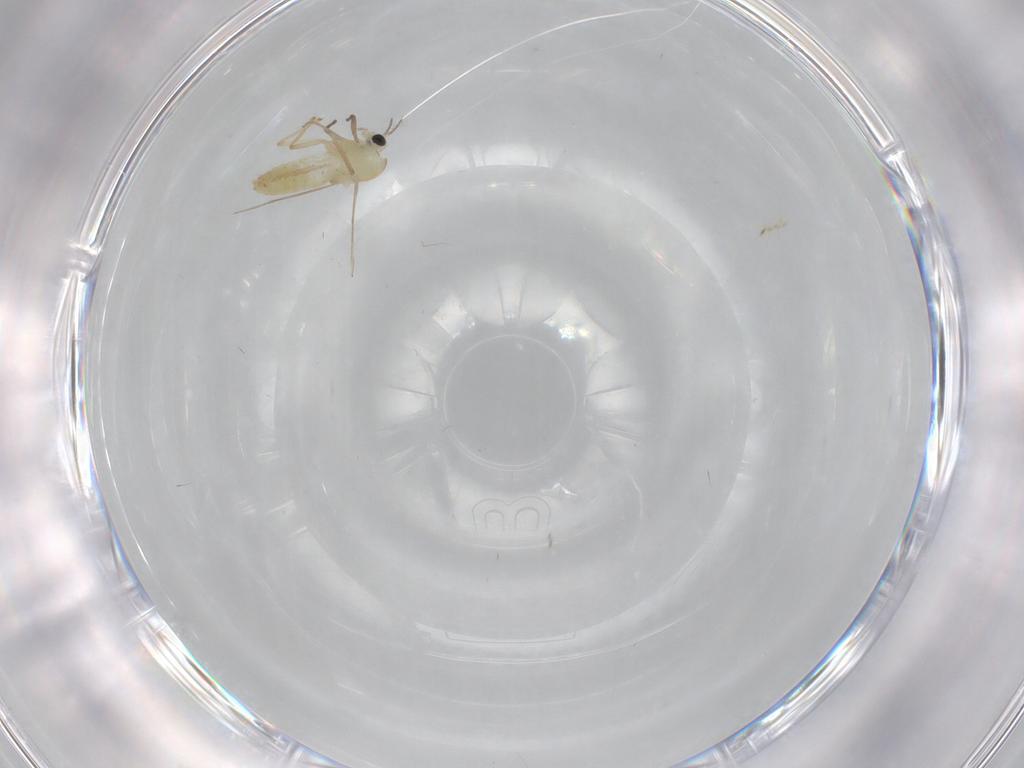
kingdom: Animalia
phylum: Arthropoda
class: Insecta
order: Diptera
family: Chironomidae
